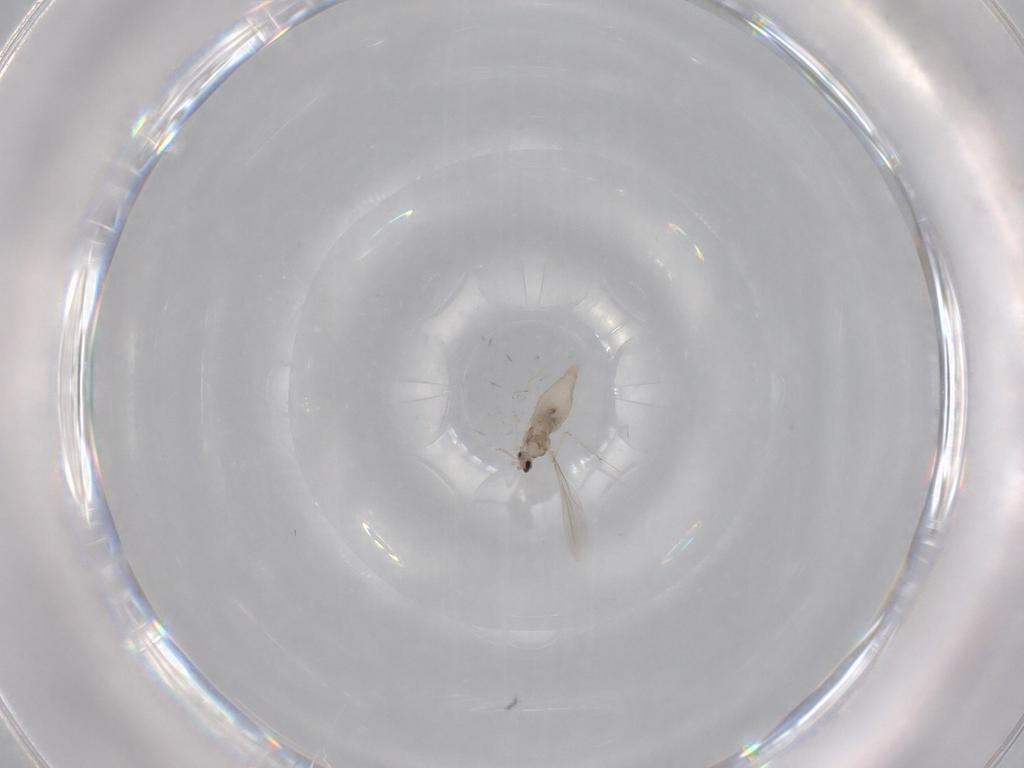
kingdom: Animalia
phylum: Arthropoda
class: Insecta
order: Diptera
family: Cecidomyiidae
